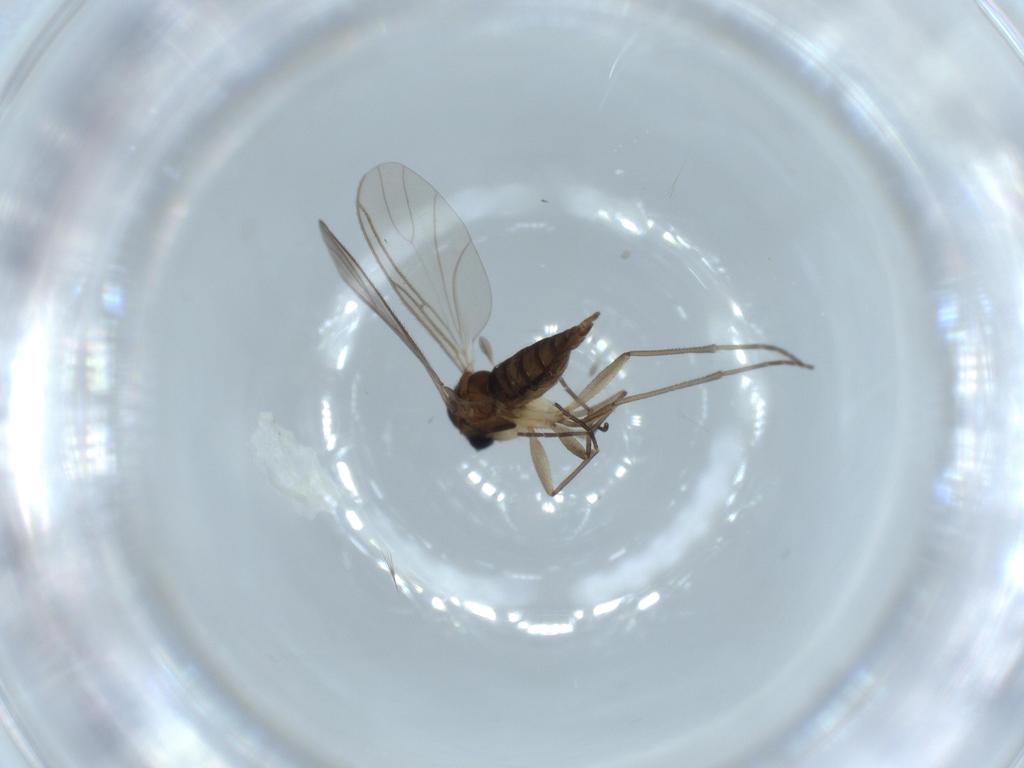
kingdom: Animalia
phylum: Arthropoda
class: Insecta
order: Diptera
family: Sciaridae
